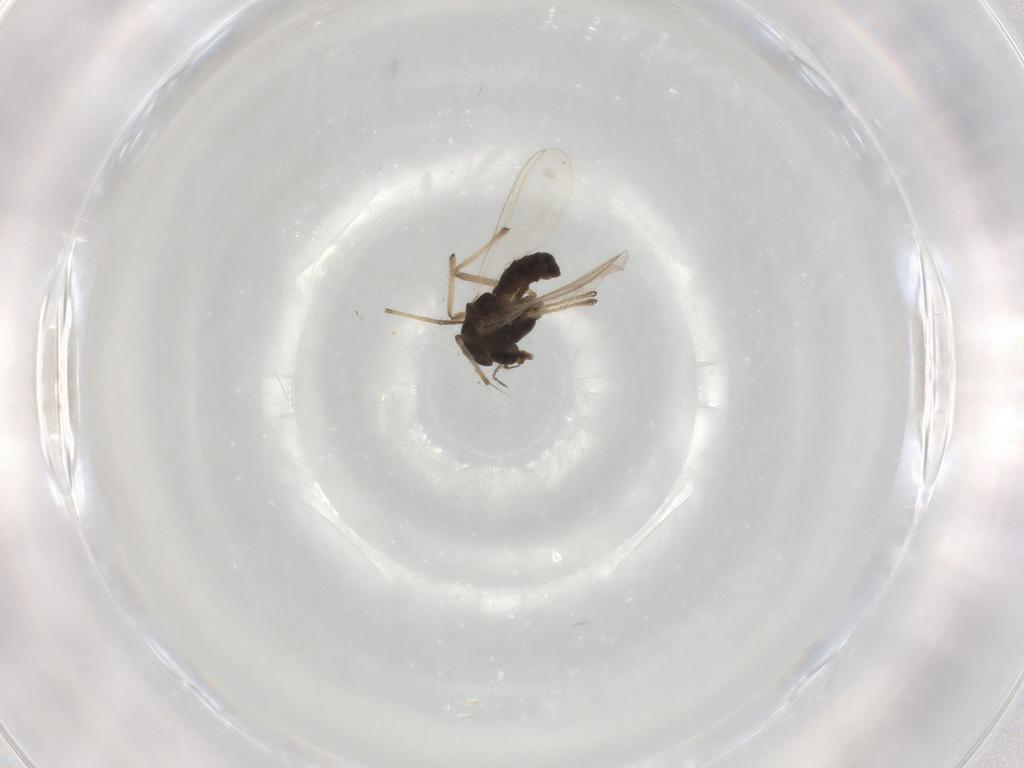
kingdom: Animalia
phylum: Arthropoda
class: Insecta
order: Diptera
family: Chironomidae
